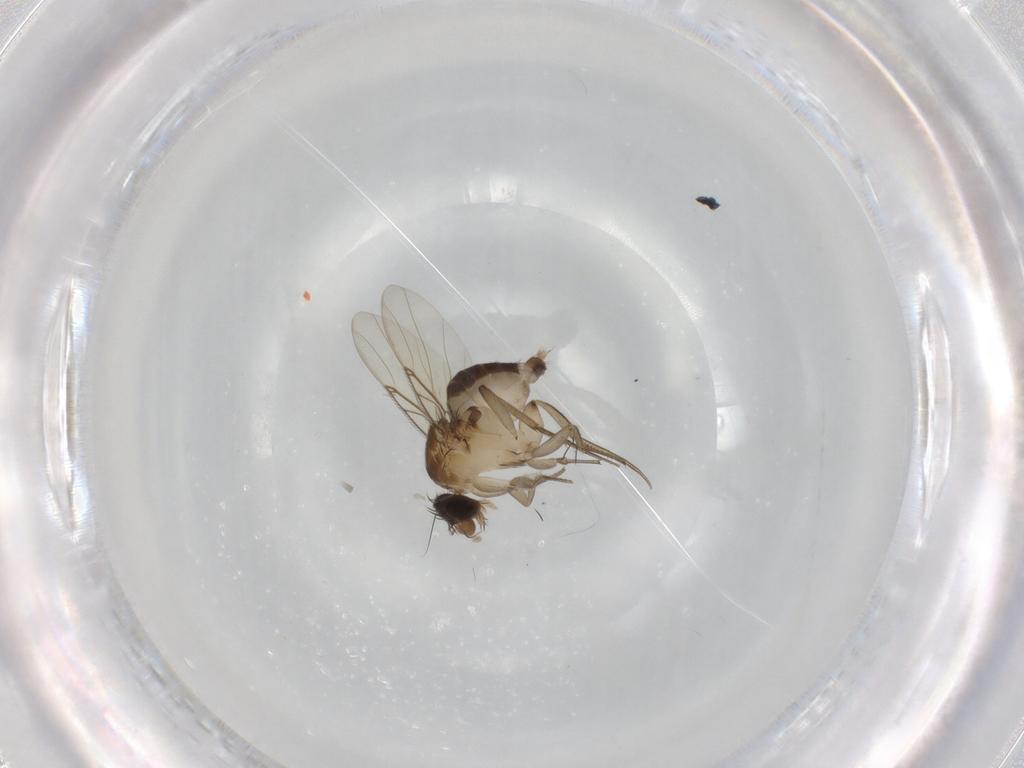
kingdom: Animalia
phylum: Arthropoda
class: Insecta
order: Diptera
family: Phoridae
